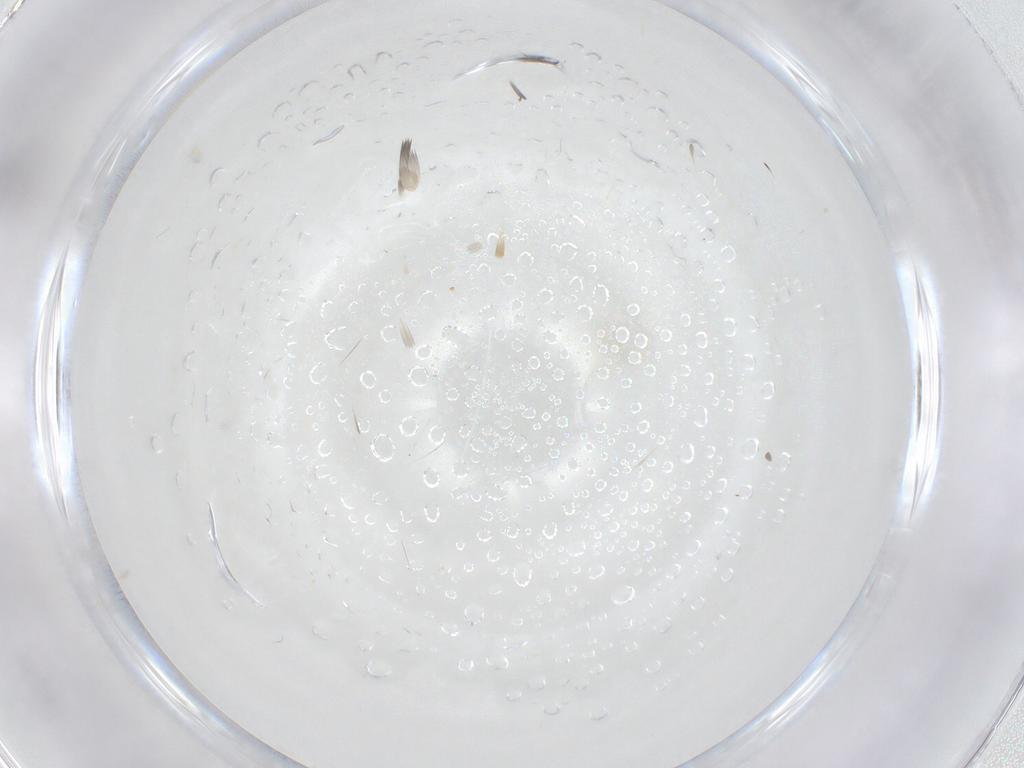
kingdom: Animalia
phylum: Arthropoda
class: Insecta
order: Diptera
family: Chironomidae
